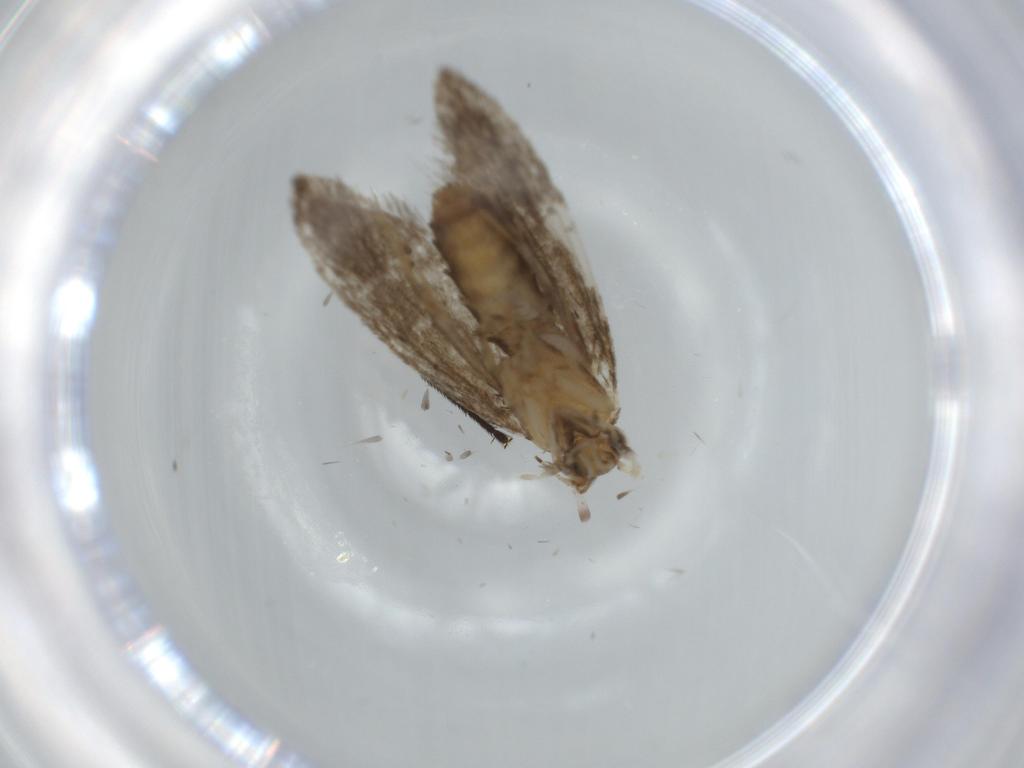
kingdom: Animalia
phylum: Arthropoda
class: Insecta
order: Lepidoptera
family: Tineidae
